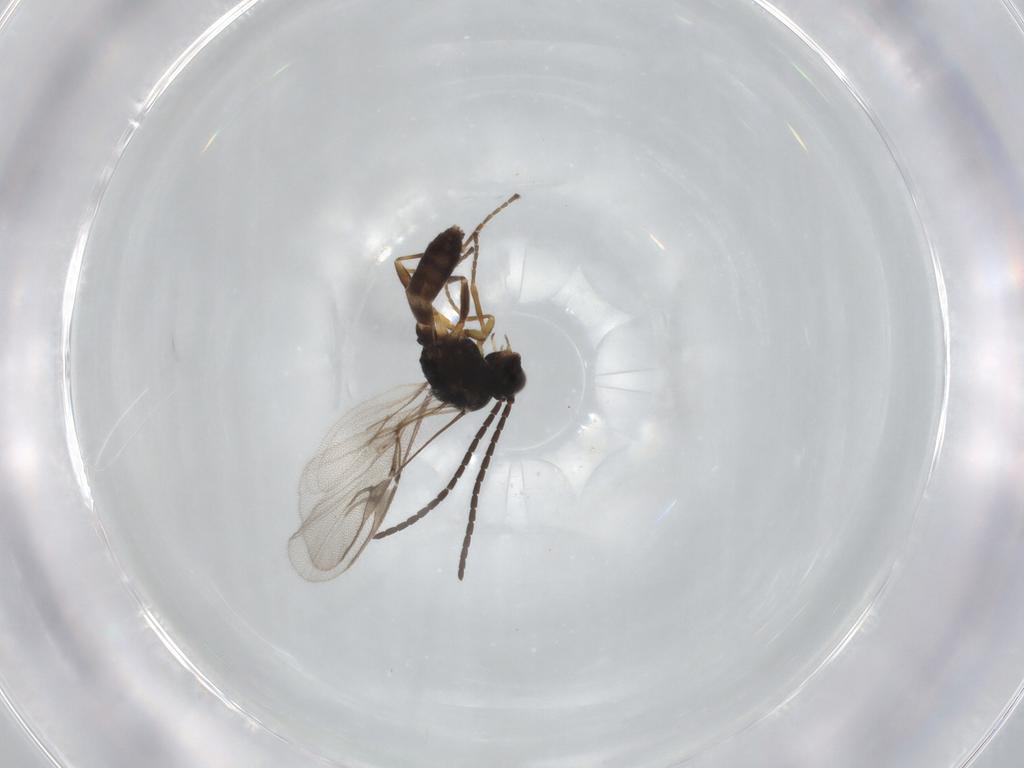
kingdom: Animalia
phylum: Arthropoda
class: Insecta
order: Hymenoptera
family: Braconidae
